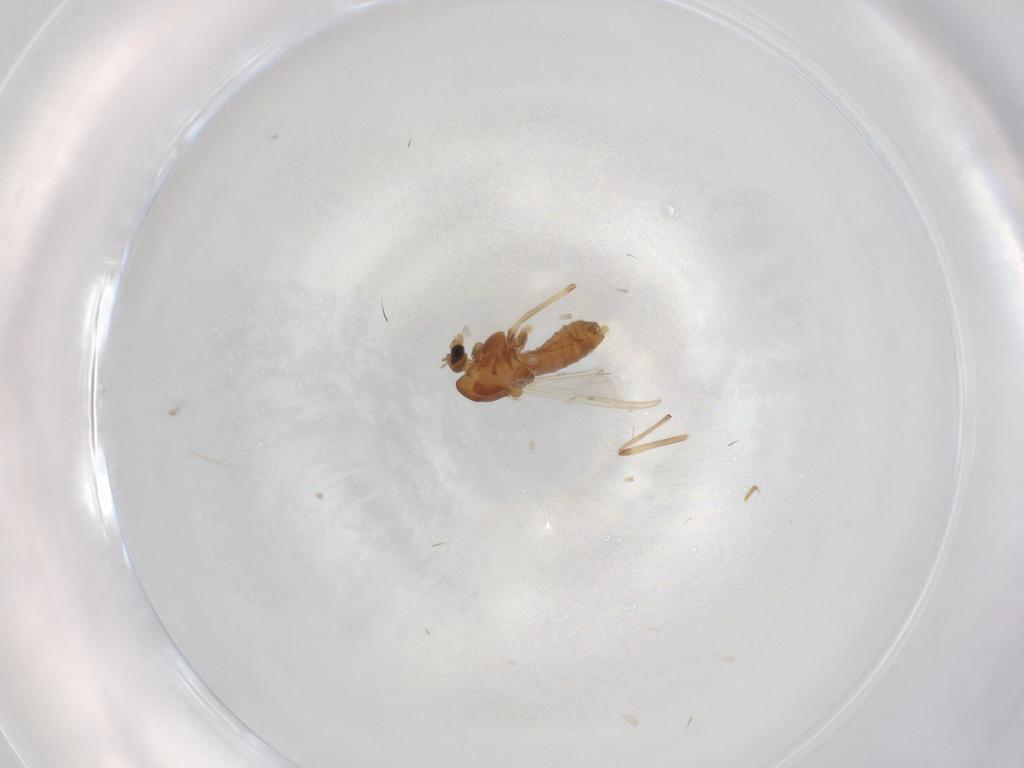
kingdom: Animalia
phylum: Arthropoda
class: Insecta
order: Diptera
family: Chironomidae
